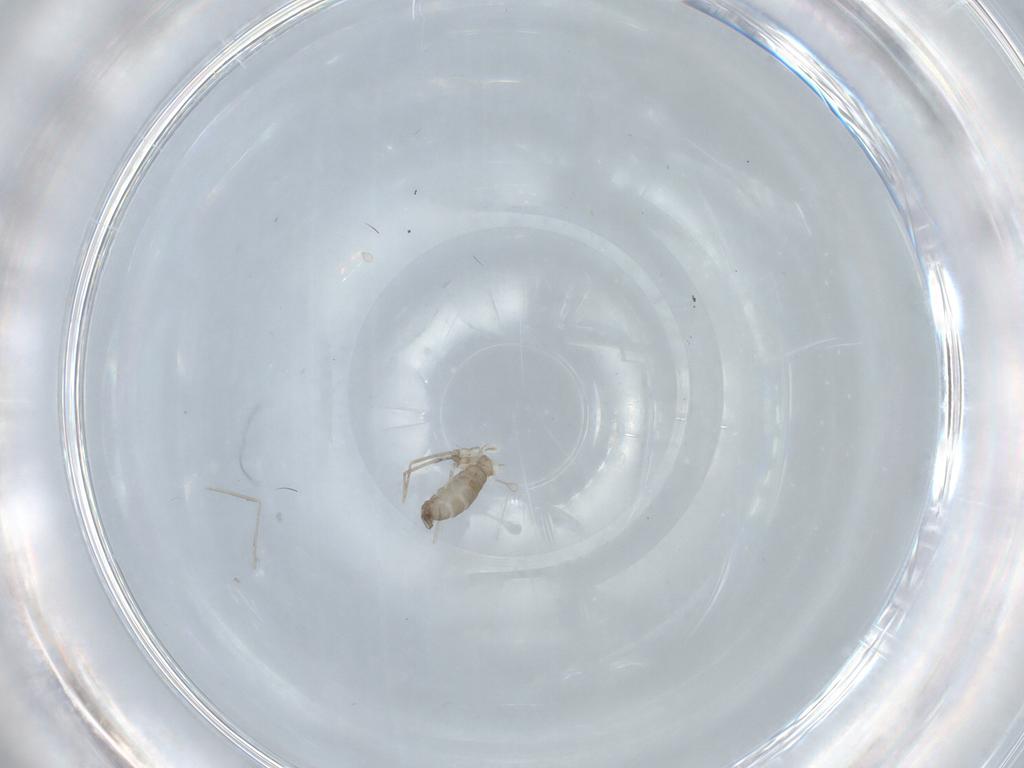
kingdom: Animalia
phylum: Arthropoda
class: Insecta
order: Diptera
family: Cecidomyiidae
